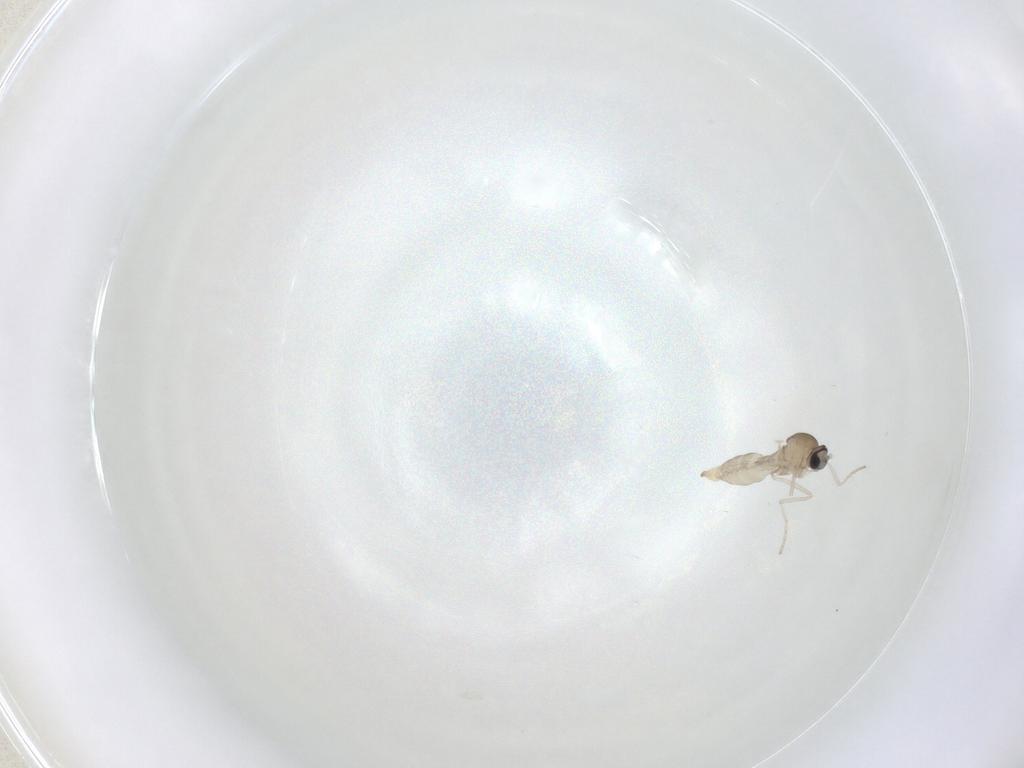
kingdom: Animalia
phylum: Arthropoda
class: Insecta
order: Diptera
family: Cecidomyiidae
